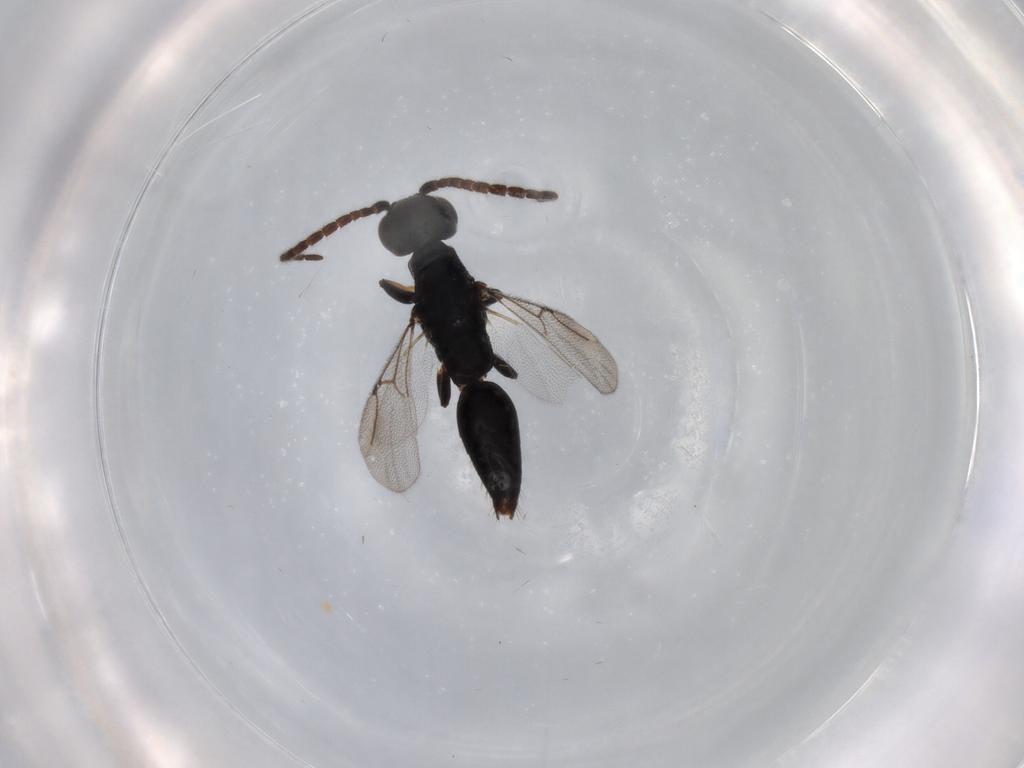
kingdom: Animalia
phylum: Arthropoda
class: Insecta
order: Hymenoptera
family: Bethylidae
